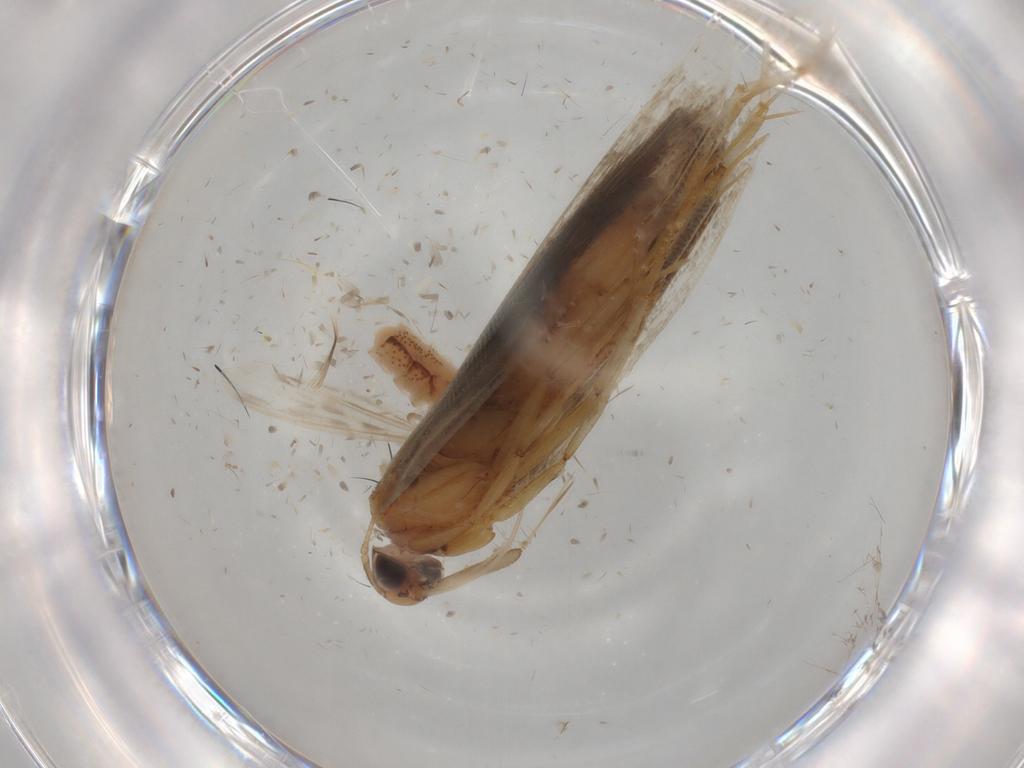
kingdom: Animalia
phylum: Arthropoda
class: Insecta
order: Lepidoptera
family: Gelechiidae
